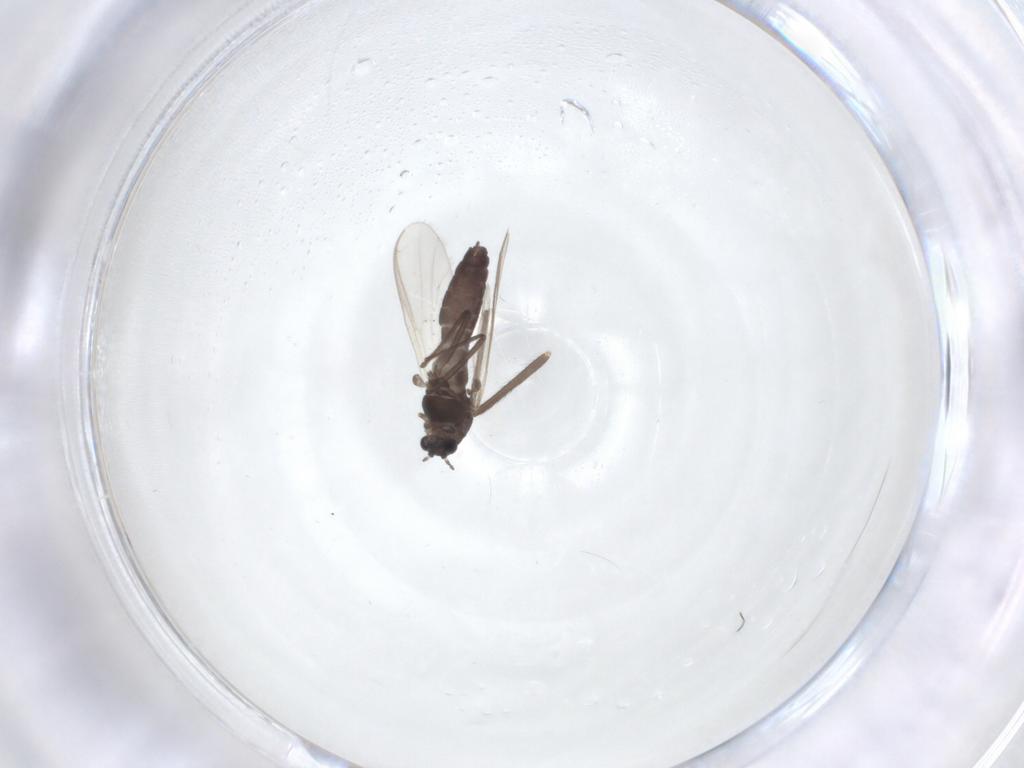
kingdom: Animalia
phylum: Arthropoda
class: Insecta
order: Diptera
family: Chironomidae
